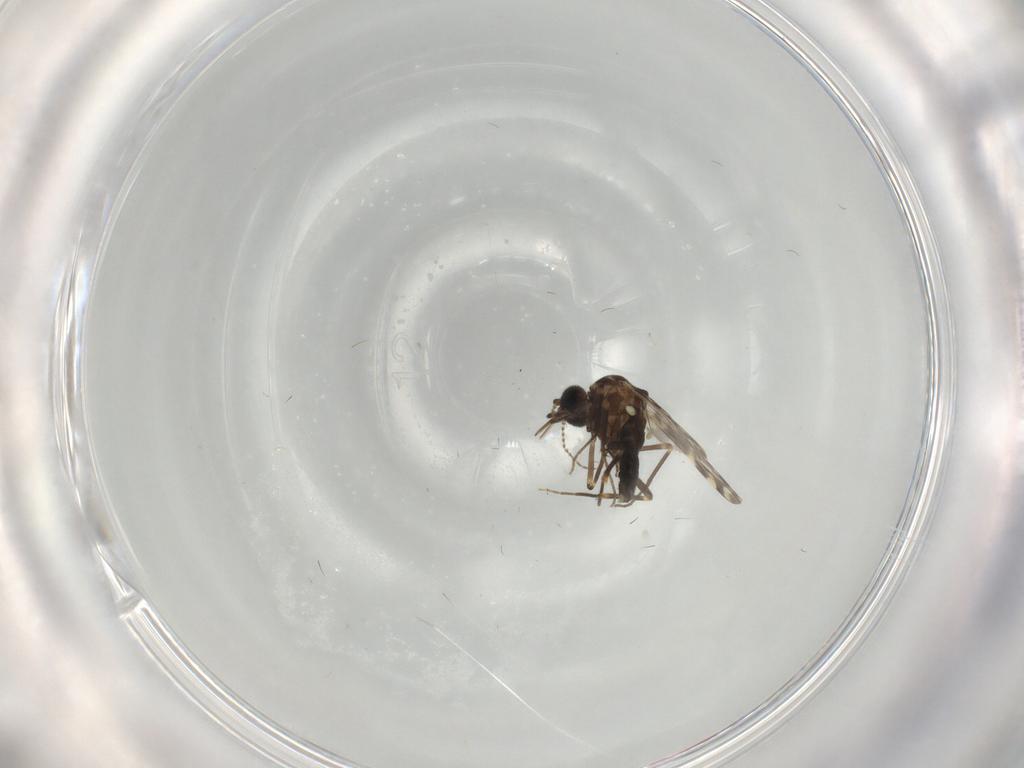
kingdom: Animalia
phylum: Arthropoda
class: Insecta
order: Diptera
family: Ceratopogonidae
